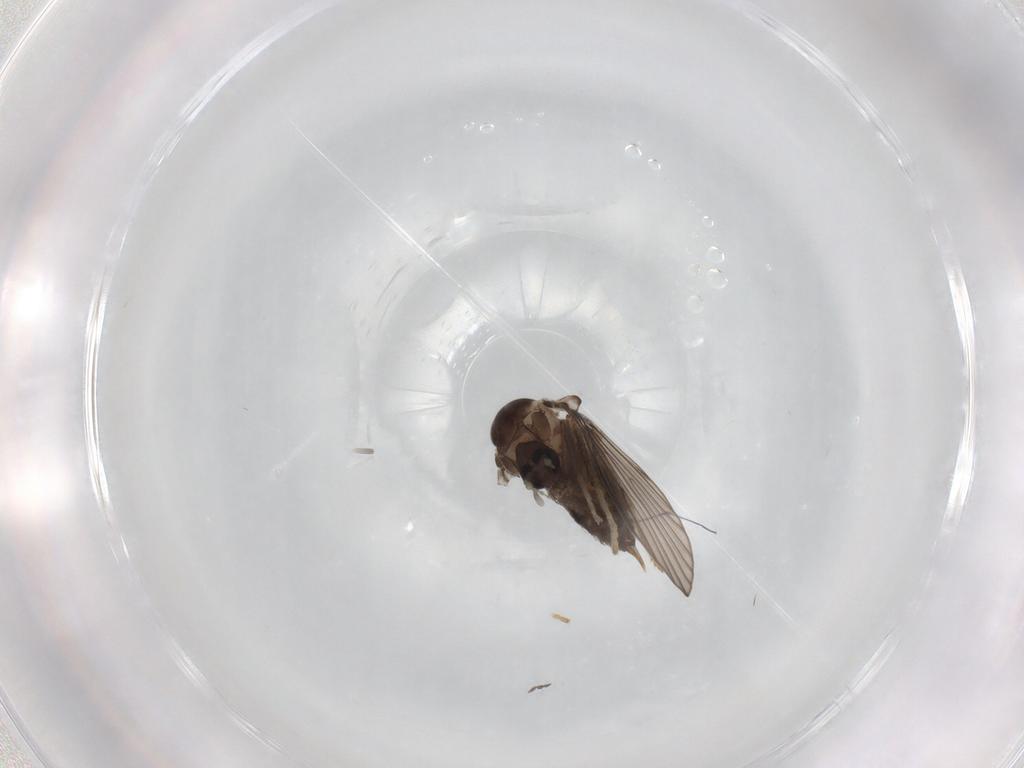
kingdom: Animalia
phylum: Arthropoda
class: Insecta
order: Diptera
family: Psychodidae
